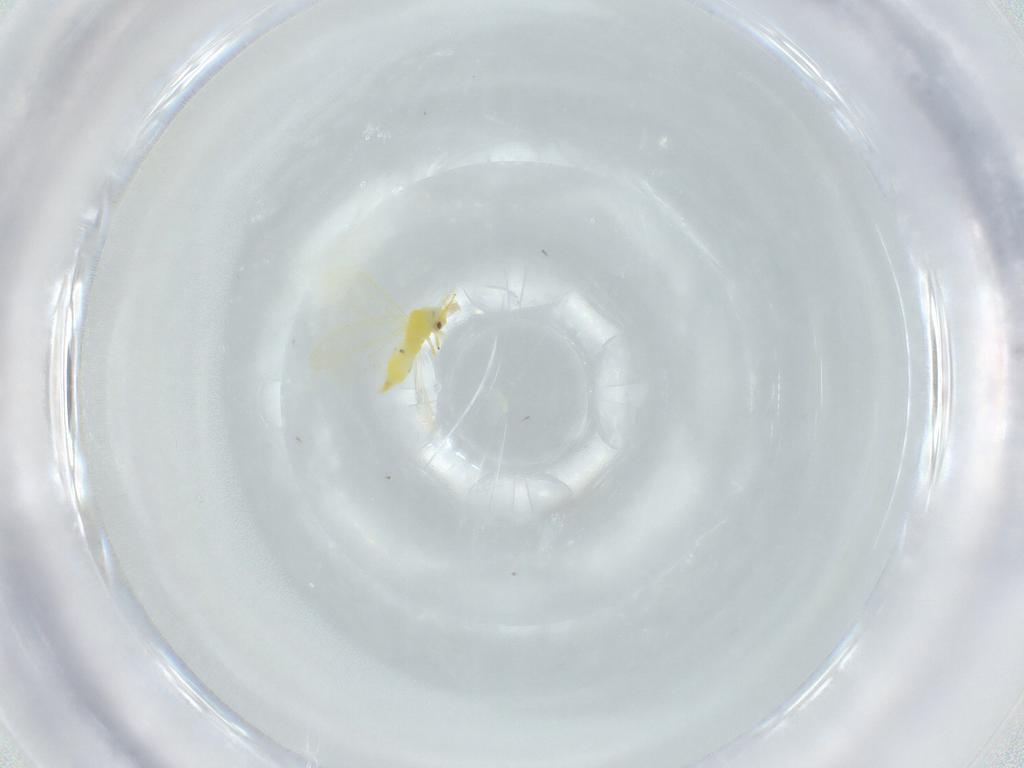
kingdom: Animalia
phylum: Arthropoda
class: Insecta
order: Hemiptera
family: Aleyrodidae
